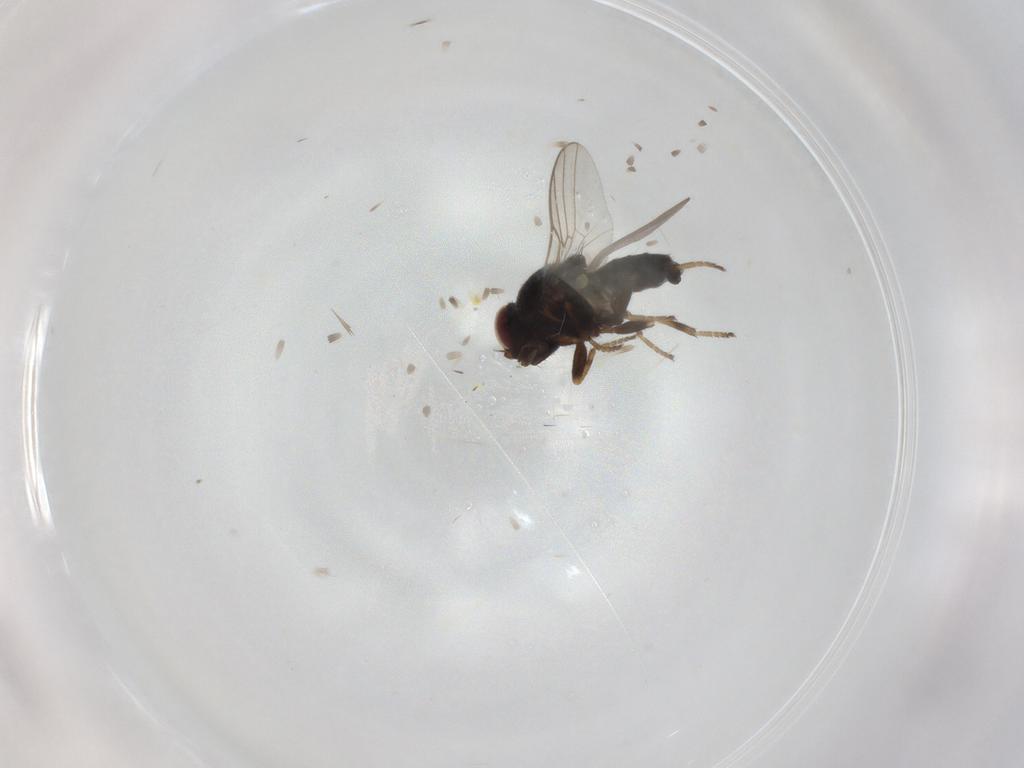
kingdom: Animalia
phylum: Arthropoda
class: Insecta
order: Diptera
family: Chloropidae
